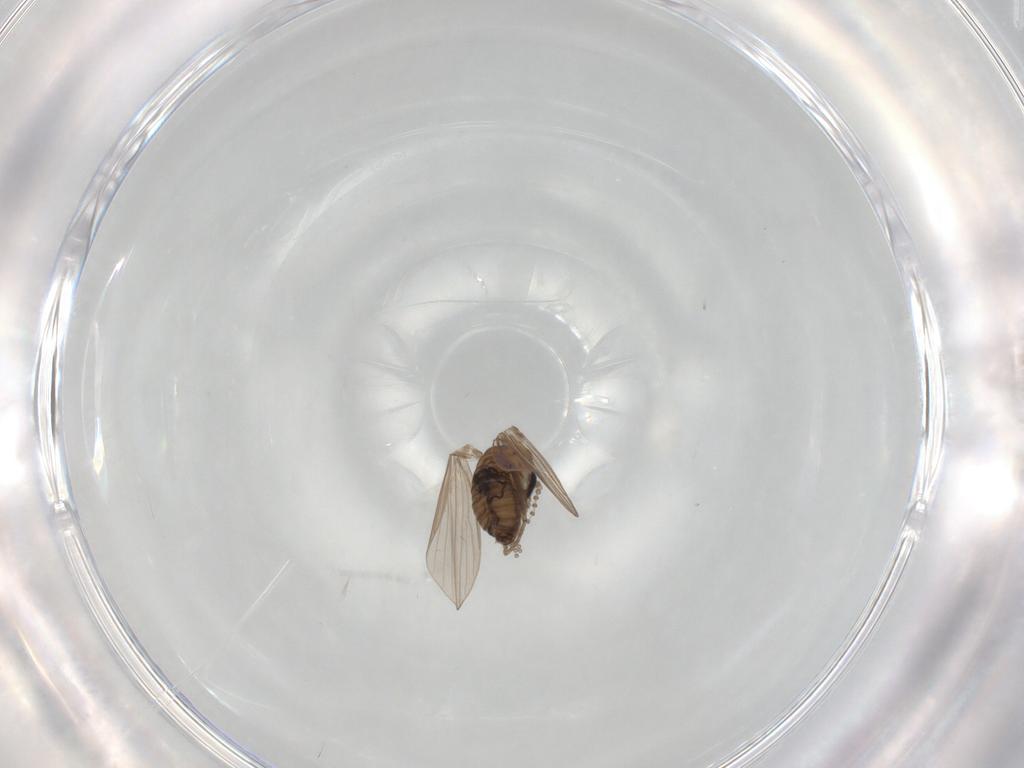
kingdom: Animalia
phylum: Arthropoda
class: Insecta
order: Diptera
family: Psychodidae
